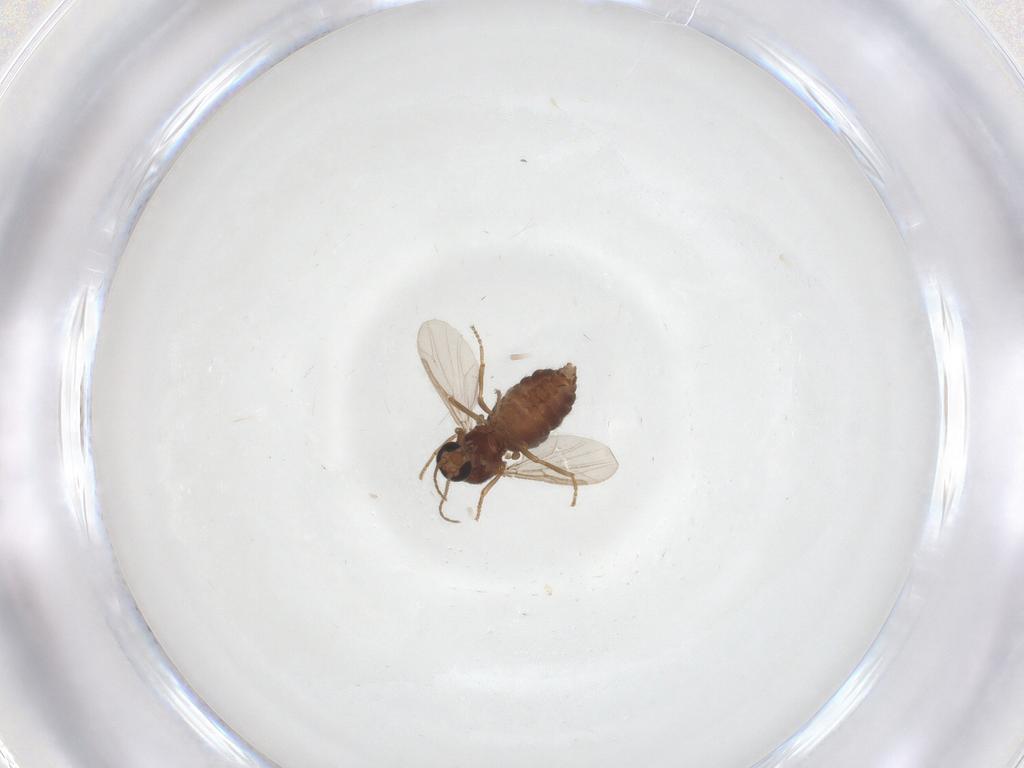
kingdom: Animalia
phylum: Arthropoda
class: Insecta
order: Diptera
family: Ceratopogonidae
